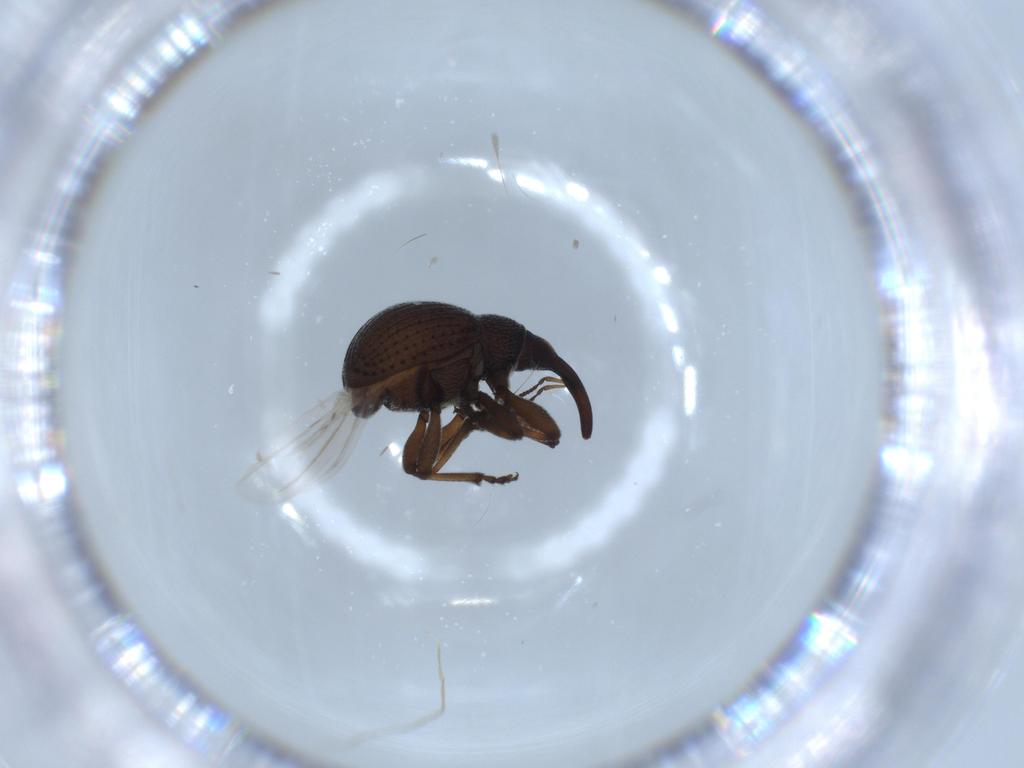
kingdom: Animalia
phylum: Arthropoda
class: Insecta
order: Coleoptera
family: Brentidae
